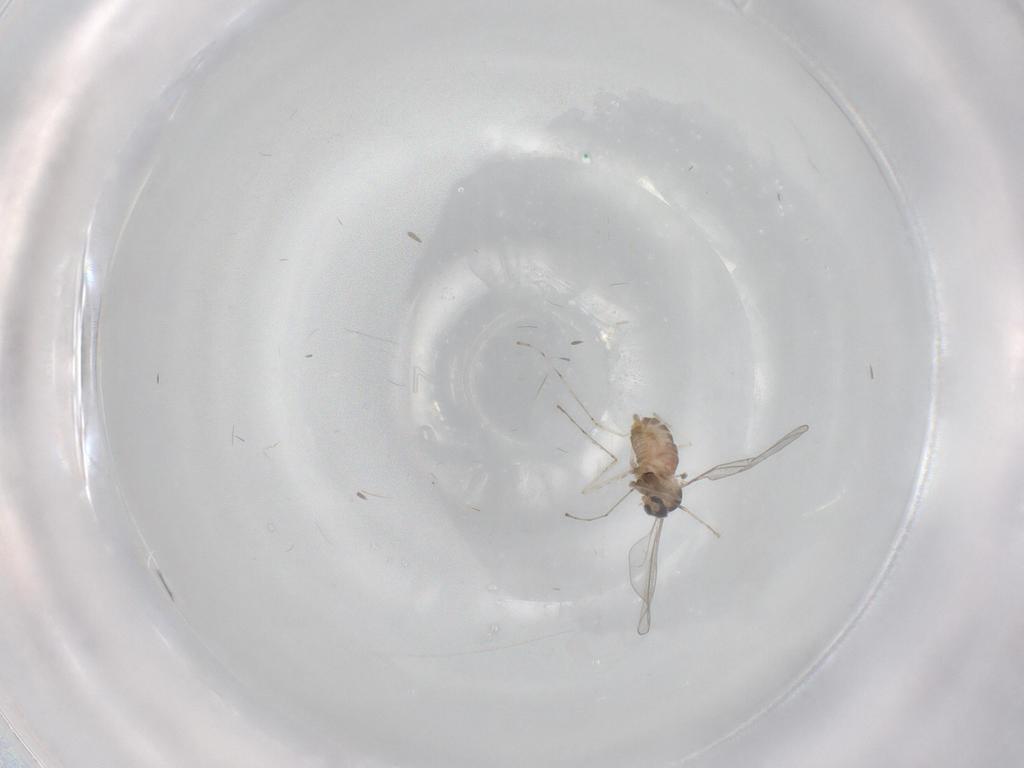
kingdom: Animalia
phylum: Arthropoda
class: Insecta
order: Diptera
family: Cecidomyiidae
